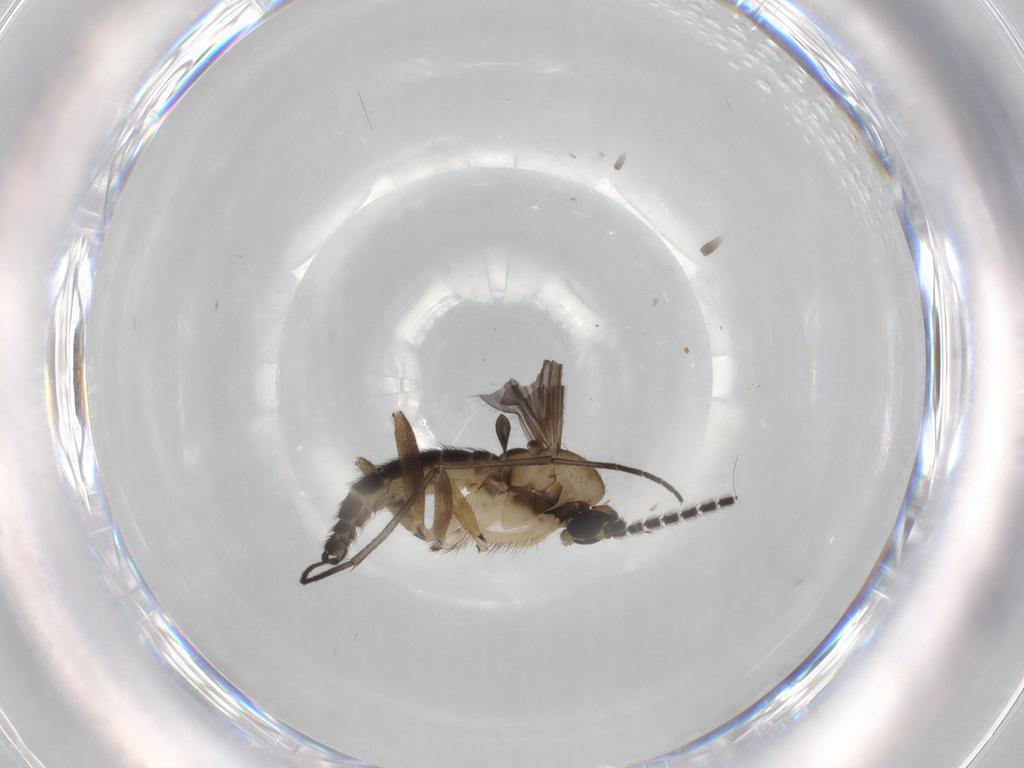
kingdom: Animalia
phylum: Arthropoda
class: Insecta
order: Diptera
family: Sciaridae
